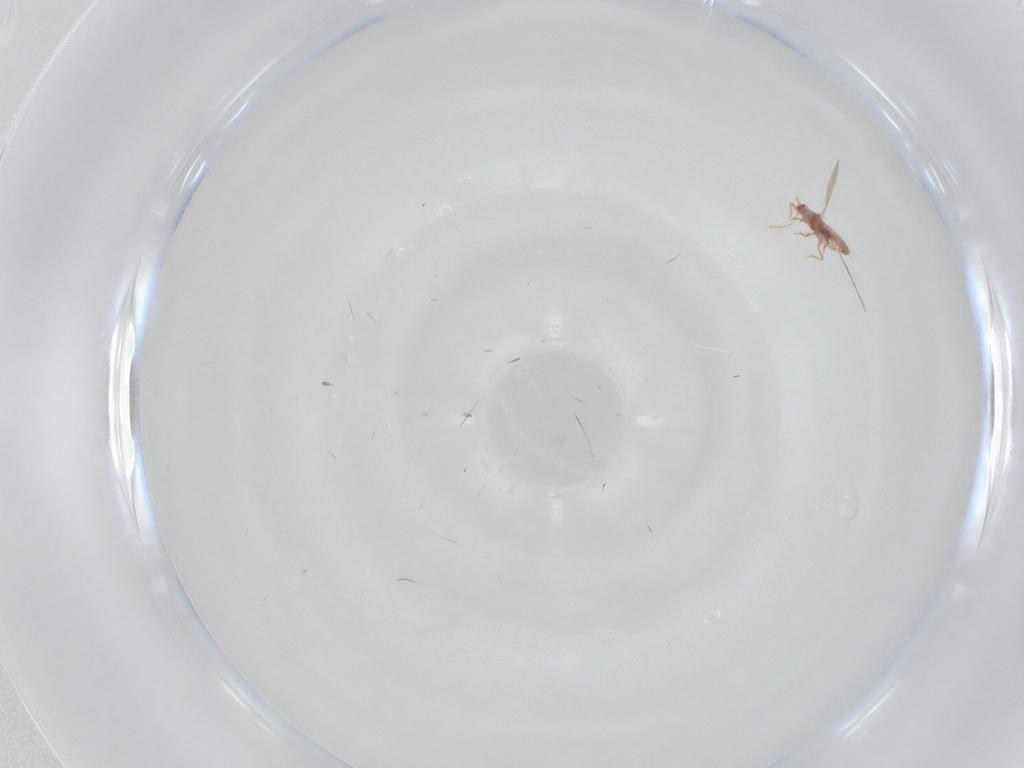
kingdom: Animalia
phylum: Arthropoda
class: Insecta
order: Hemiptera
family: Pseudococcidae
